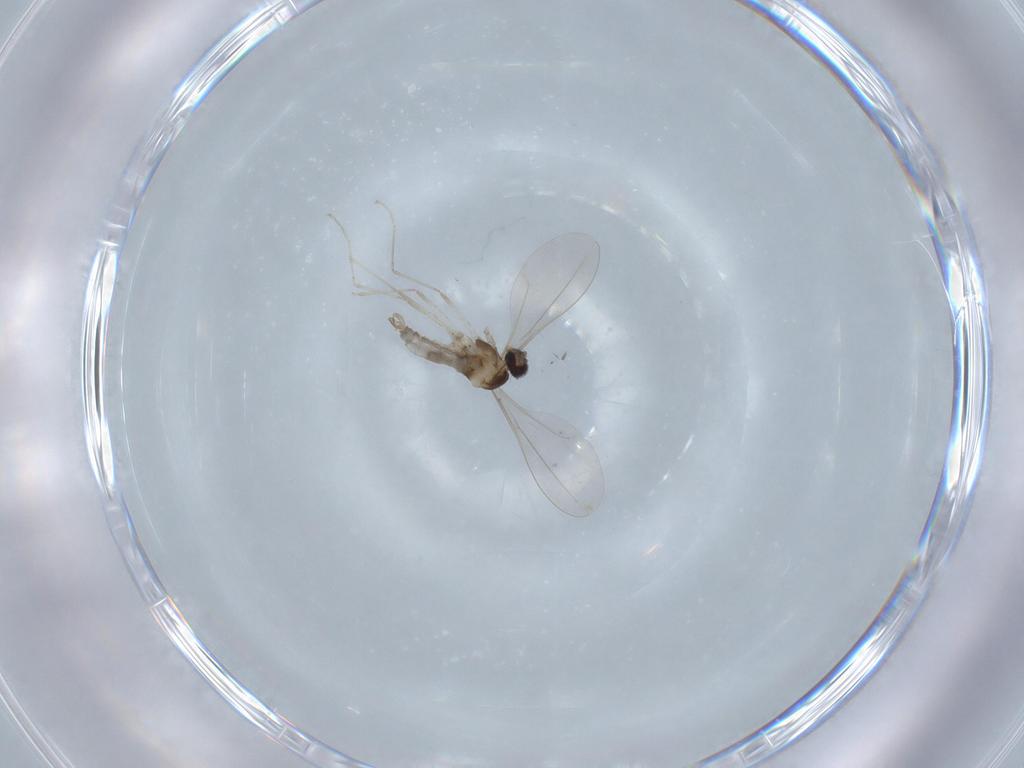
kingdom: Animalia
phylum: Arthropoda
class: Insecta
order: Diptera
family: Cecidomyiidae
